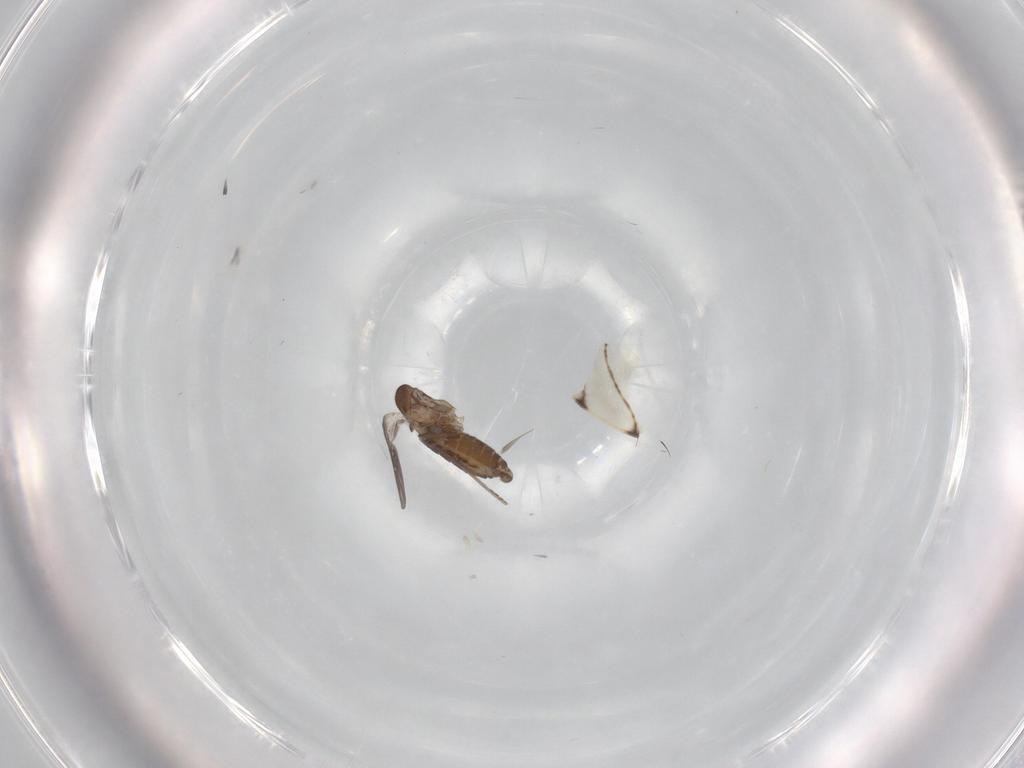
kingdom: Animalia
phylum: Arthropoda
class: Insecta
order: Diptera
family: Psychodidae
